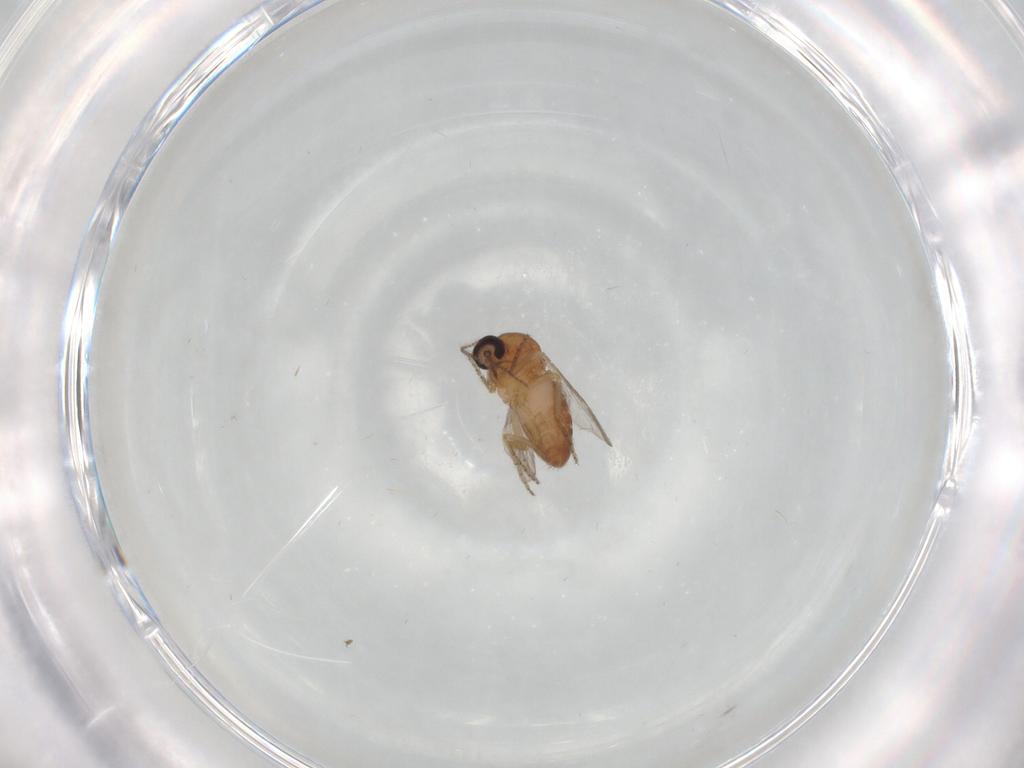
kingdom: Animalia
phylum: Arthropoda
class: Insecta
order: Diptera
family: Ceratopogonidae
